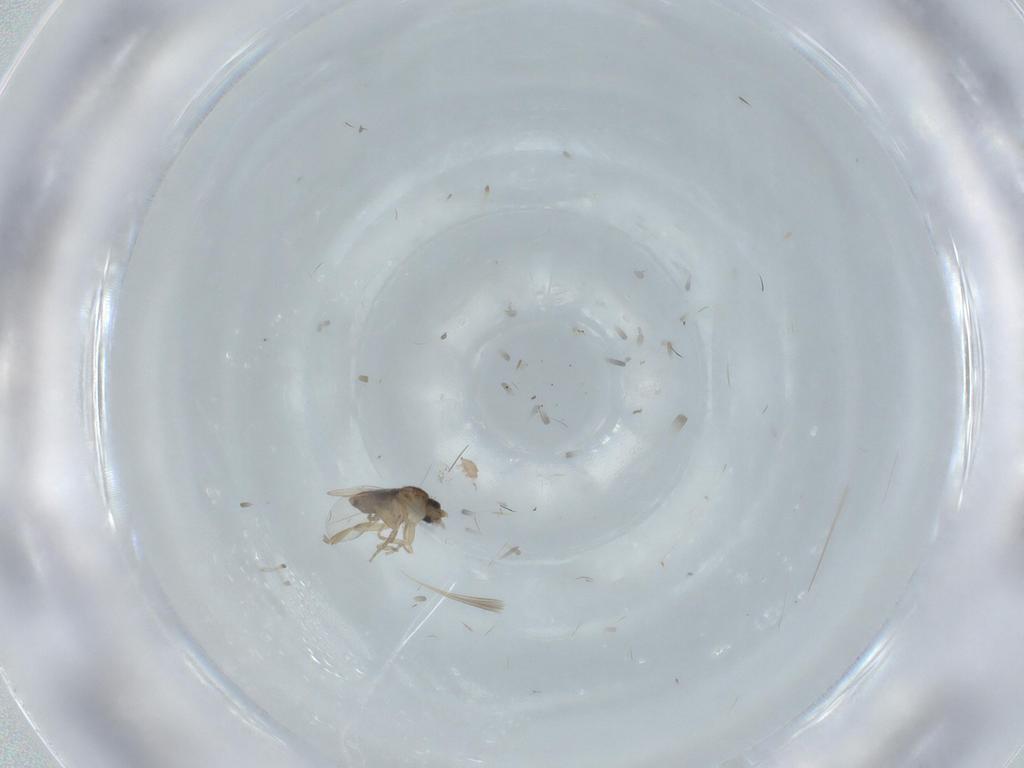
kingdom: Animalia
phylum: Arthropoda
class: Insecta
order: Diptera
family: Phoridae
